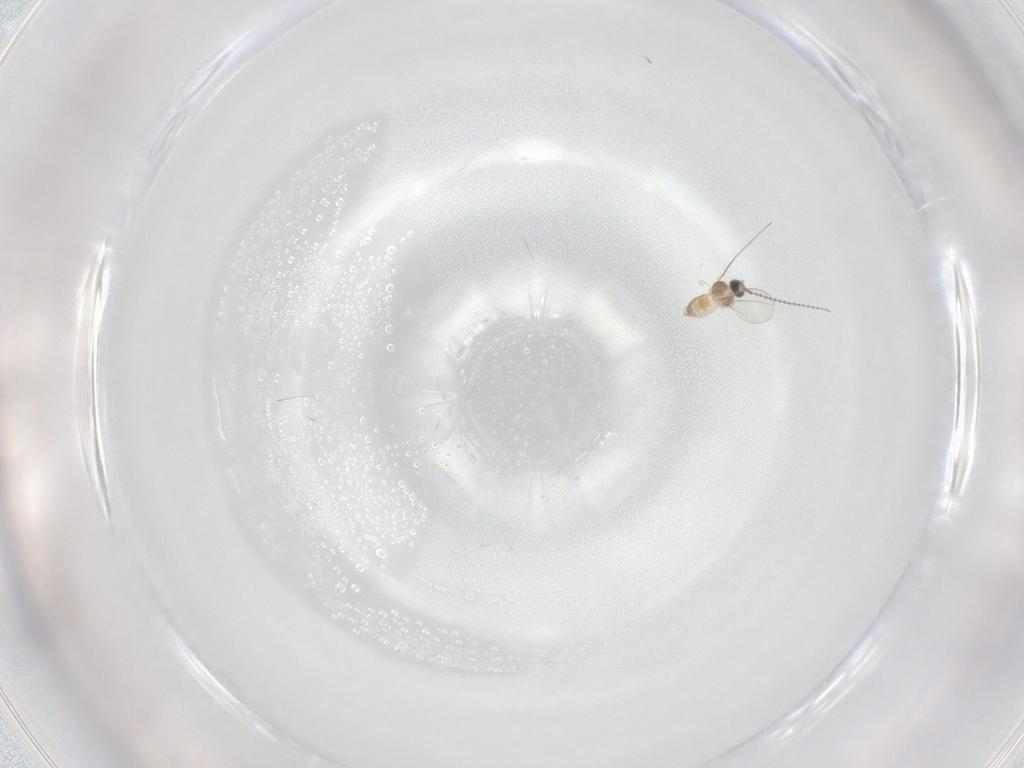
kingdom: Animalia
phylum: Arthropoda
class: Insecta
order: Diptera
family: Cecidomyiidae
